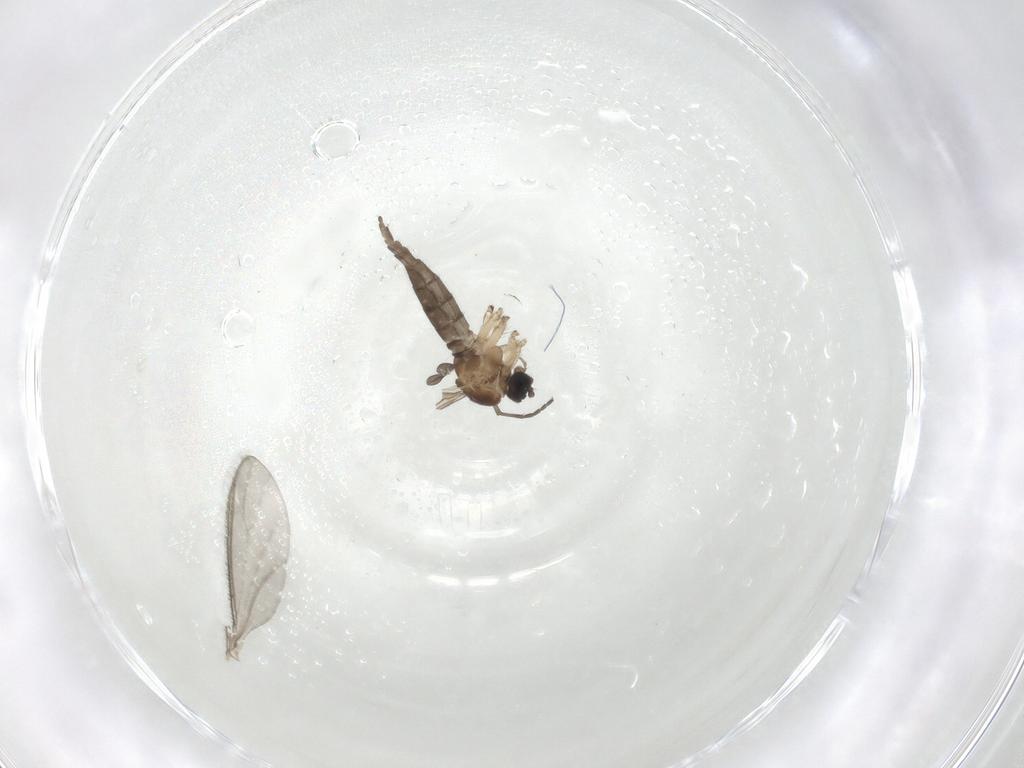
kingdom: Animalia
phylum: Arthropoda
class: Insecta
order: Diptera
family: Sciaridae
